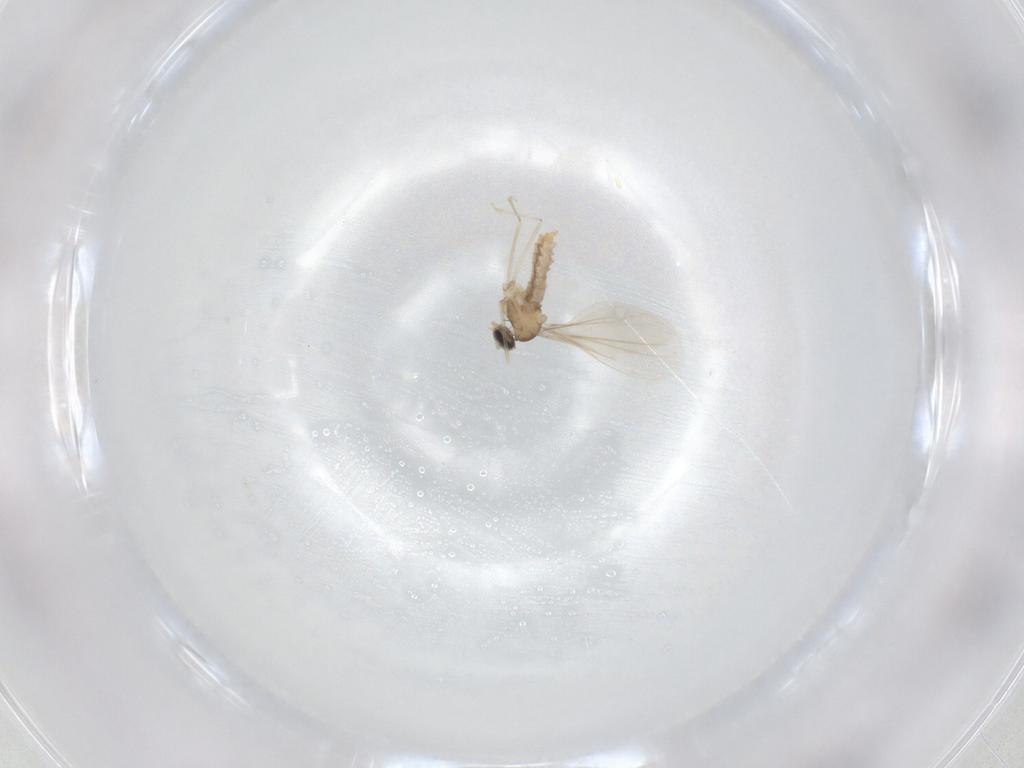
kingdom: Animalia
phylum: Arthropoda
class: Insecta
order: Diptera
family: Cecidomyiidae
